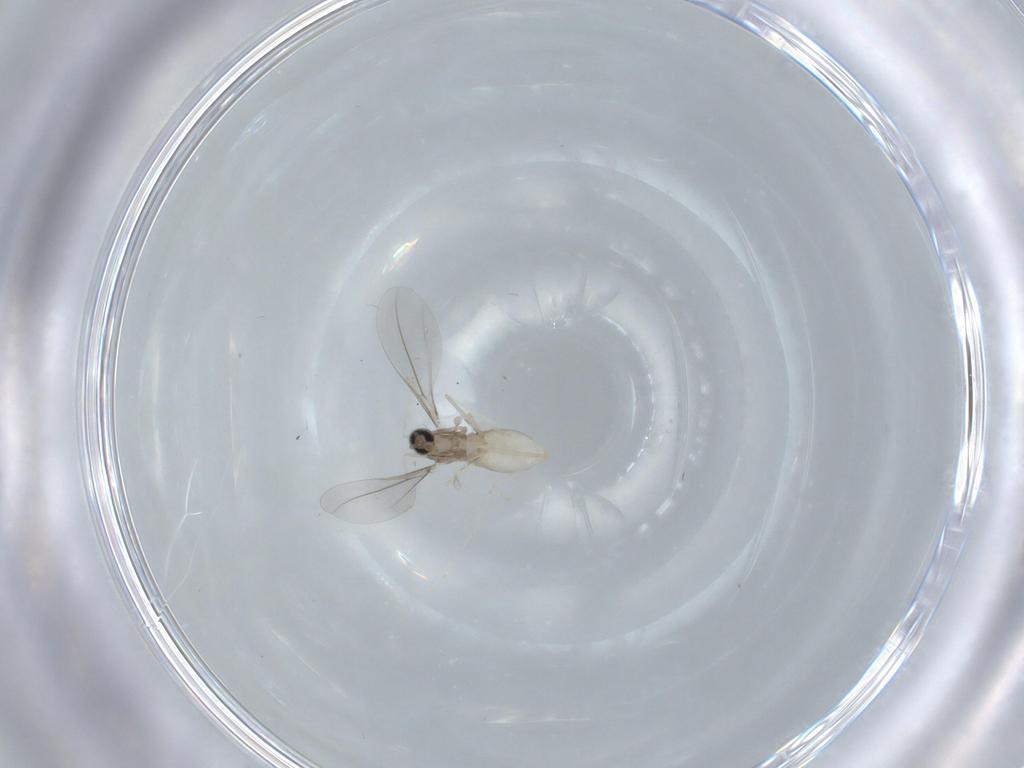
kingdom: Animalia
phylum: Arthropoda
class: Insecta
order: Diptera
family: Cecidomyiidae
